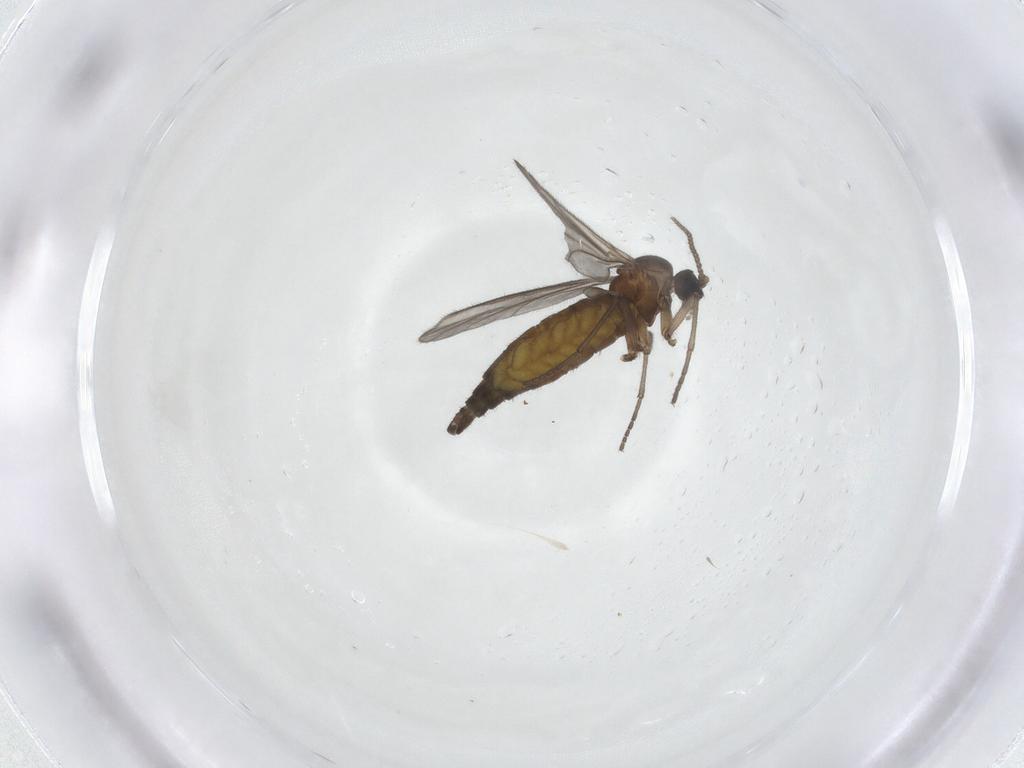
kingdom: Animalia
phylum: Arthropoda
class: Insecta
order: Diptera
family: Sciaridae
